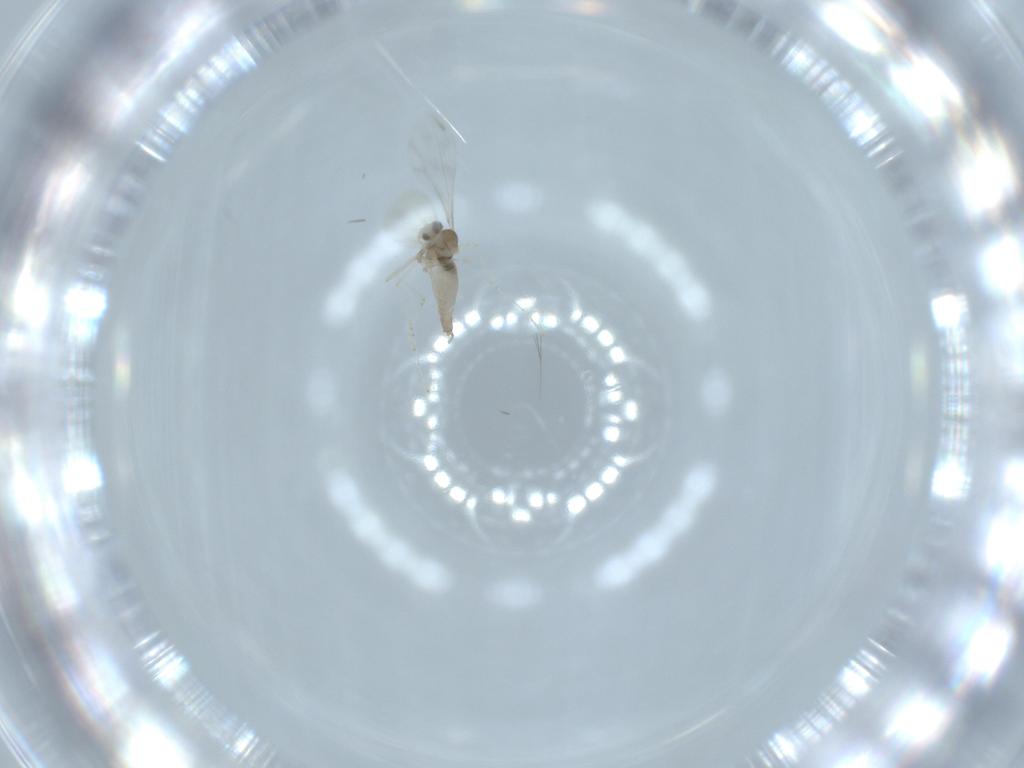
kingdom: Animalia
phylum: Arthropoda
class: Insecta
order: Diptera
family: Cecidomyiidae
